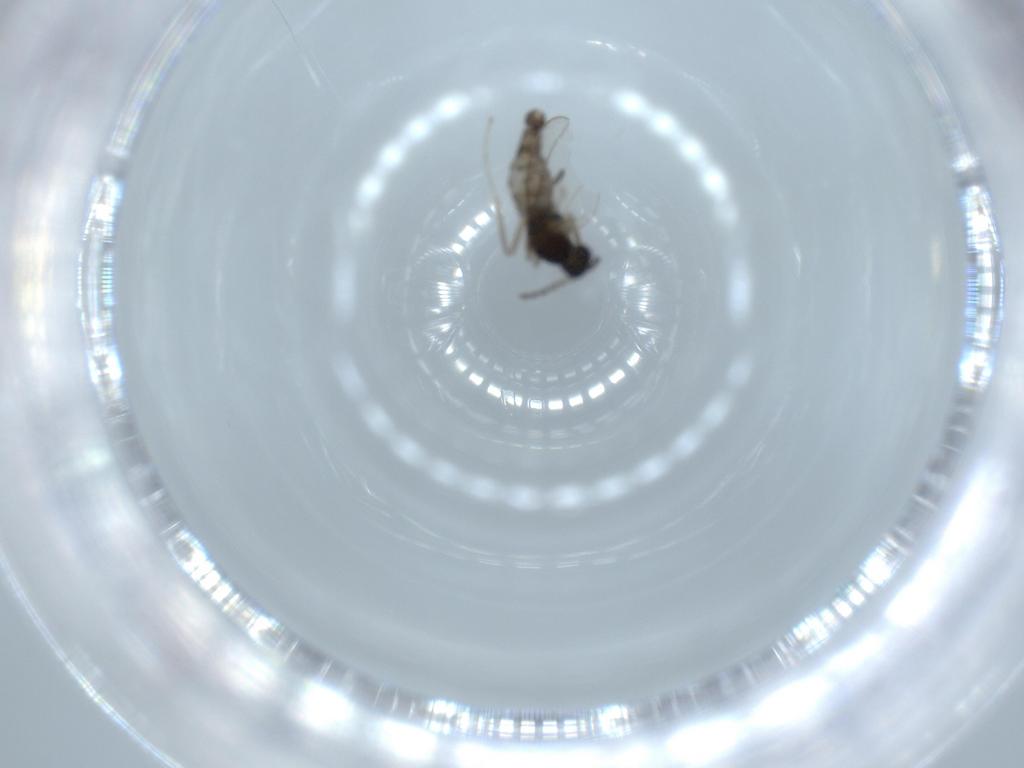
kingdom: Animalia
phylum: Arthropoda
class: Insecta
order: Diptera
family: Cecidomyiidae
